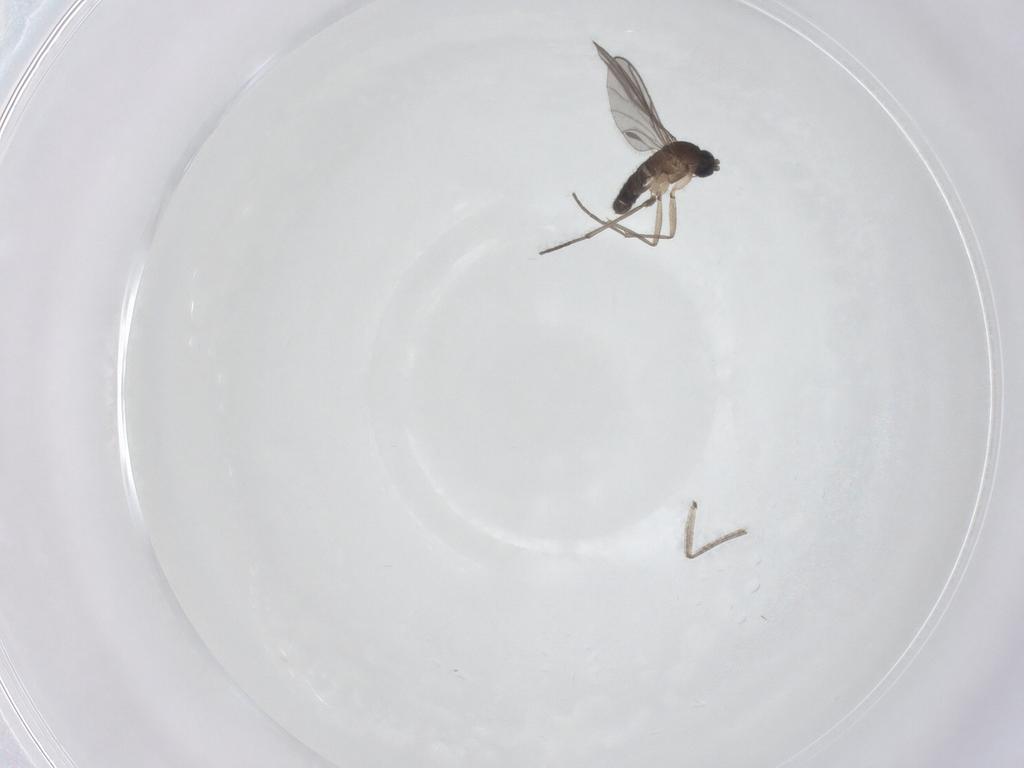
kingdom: Animalia
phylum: Arthropoda
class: Insecta
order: Diptera
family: Sciaridae
